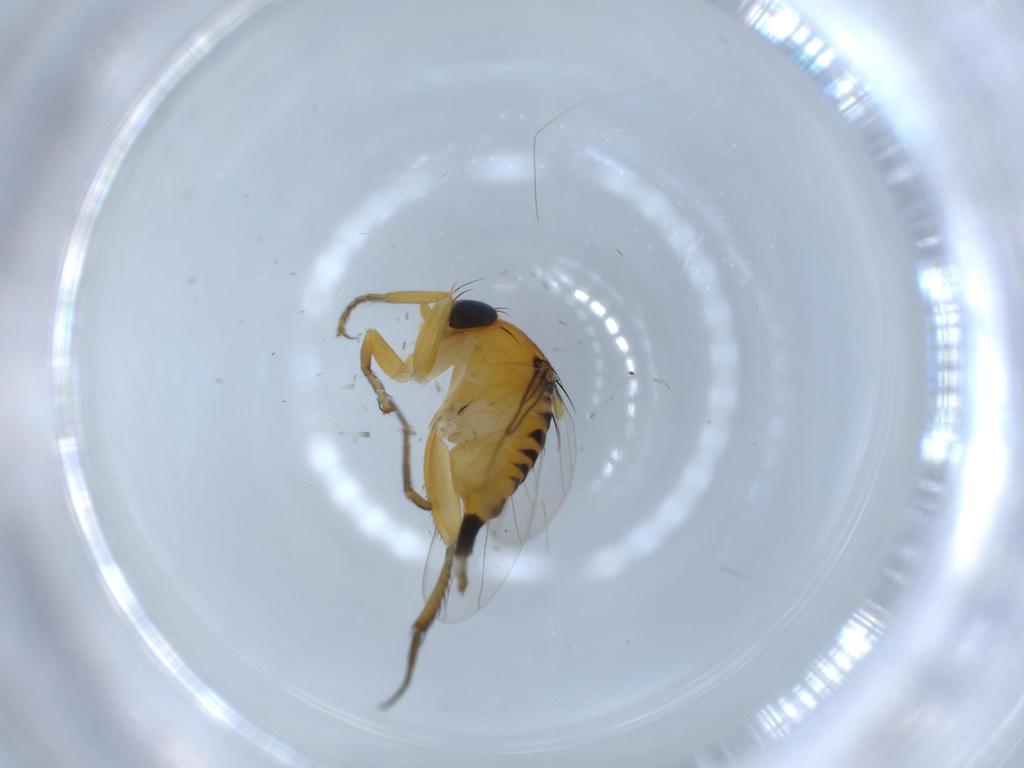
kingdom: Animalia
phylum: Arthropoda
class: Insecta
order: Diptera
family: Phoridae
